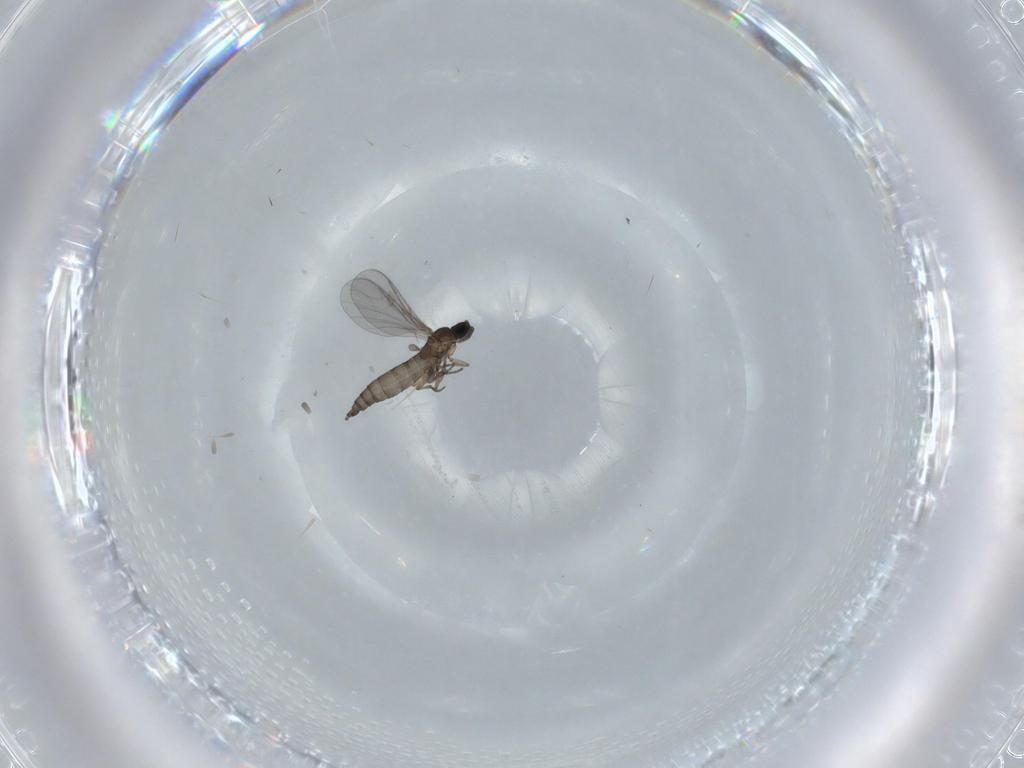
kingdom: Animalia
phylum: Arthropoda
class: Insecta
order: Diptera
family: Sciaridae
